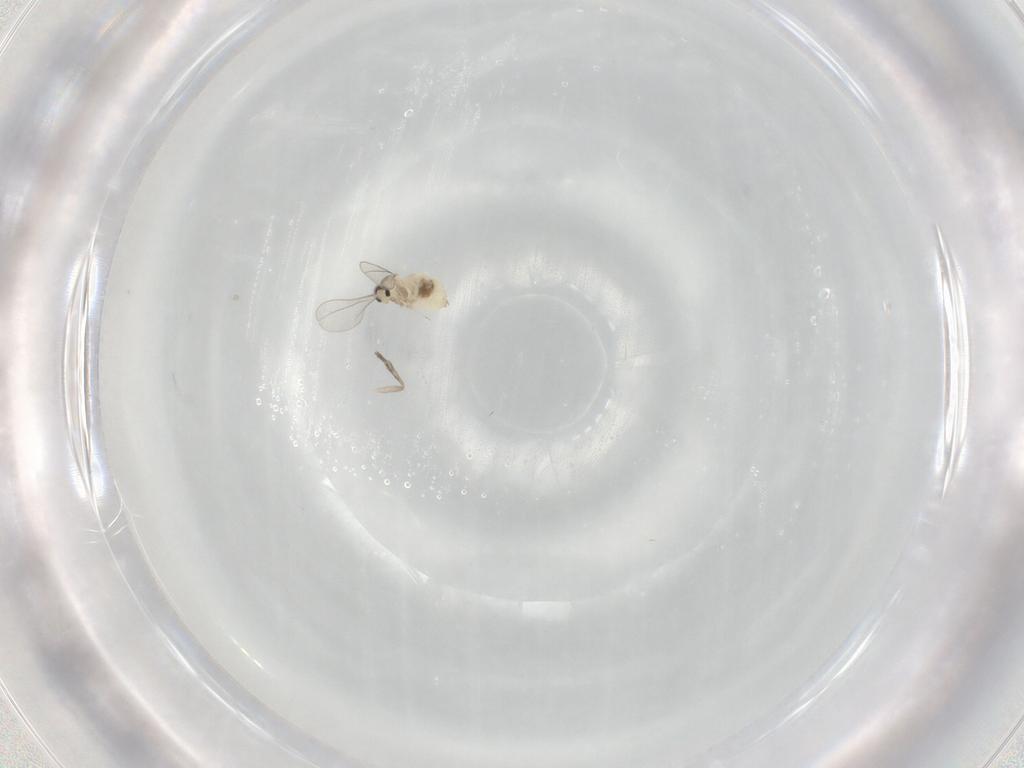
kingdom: Animalia
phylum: Arthropoda
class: Insecta
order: Diptera
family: Cecidomyiidae
